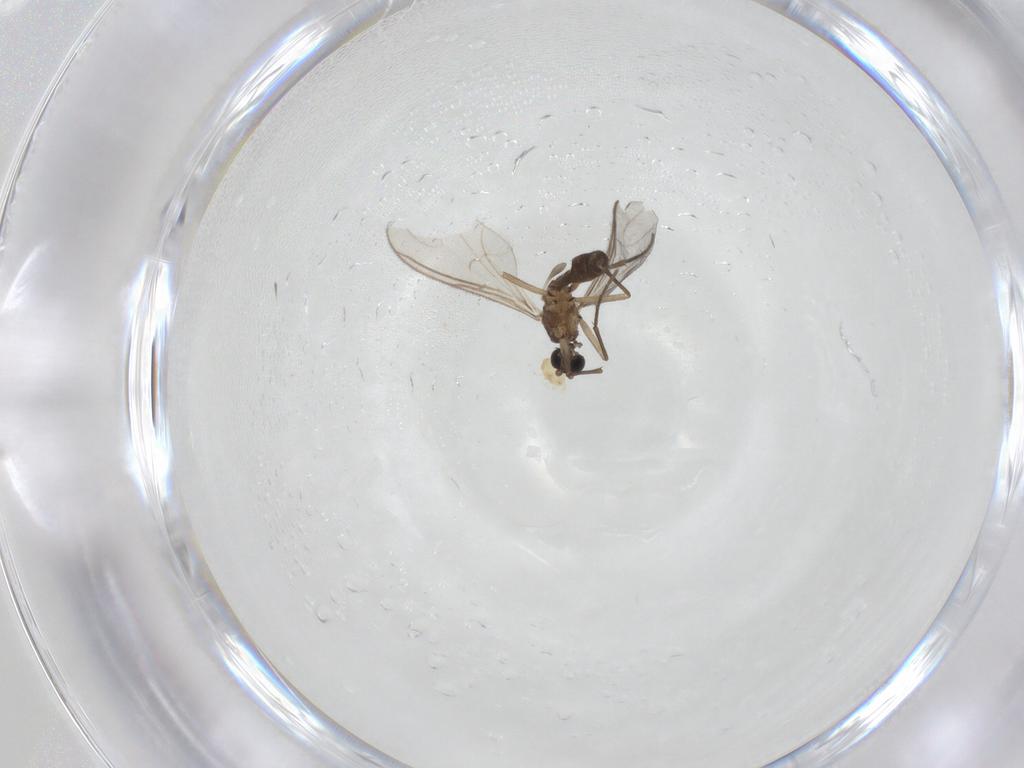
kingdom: Animalia
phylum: Arthropoda
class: Insecta
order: Diptera
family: Sciaridae
